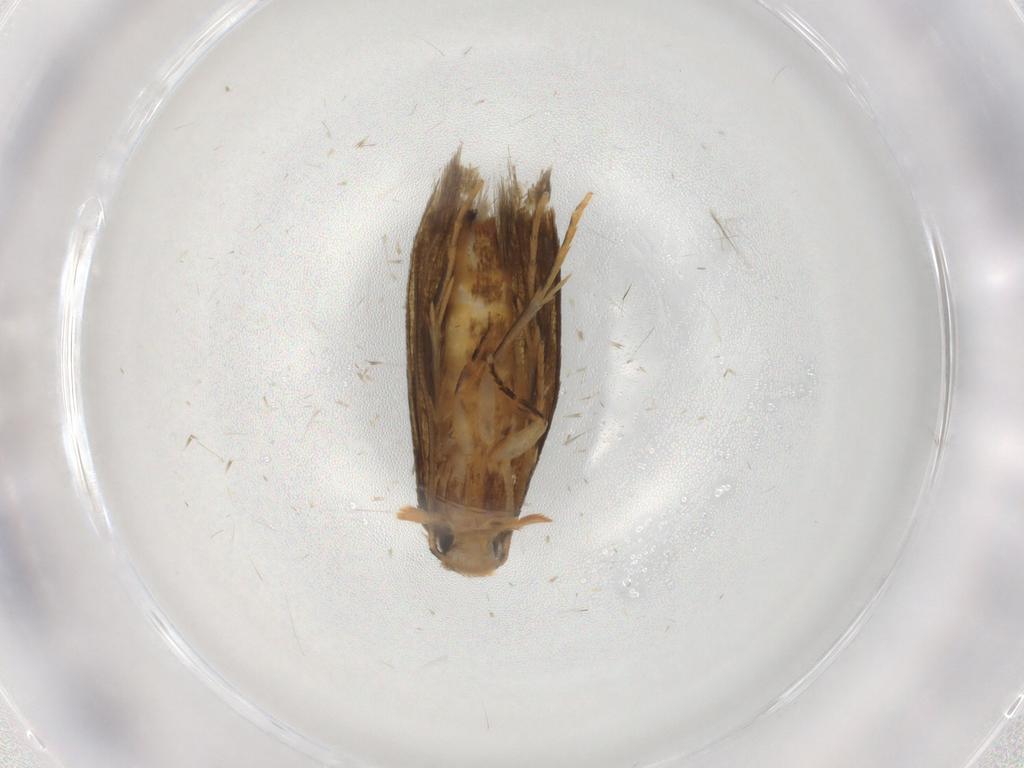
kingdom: Animalia
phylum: Arthropoda
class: Insecta
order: Lepidoptera
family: Tineidae
